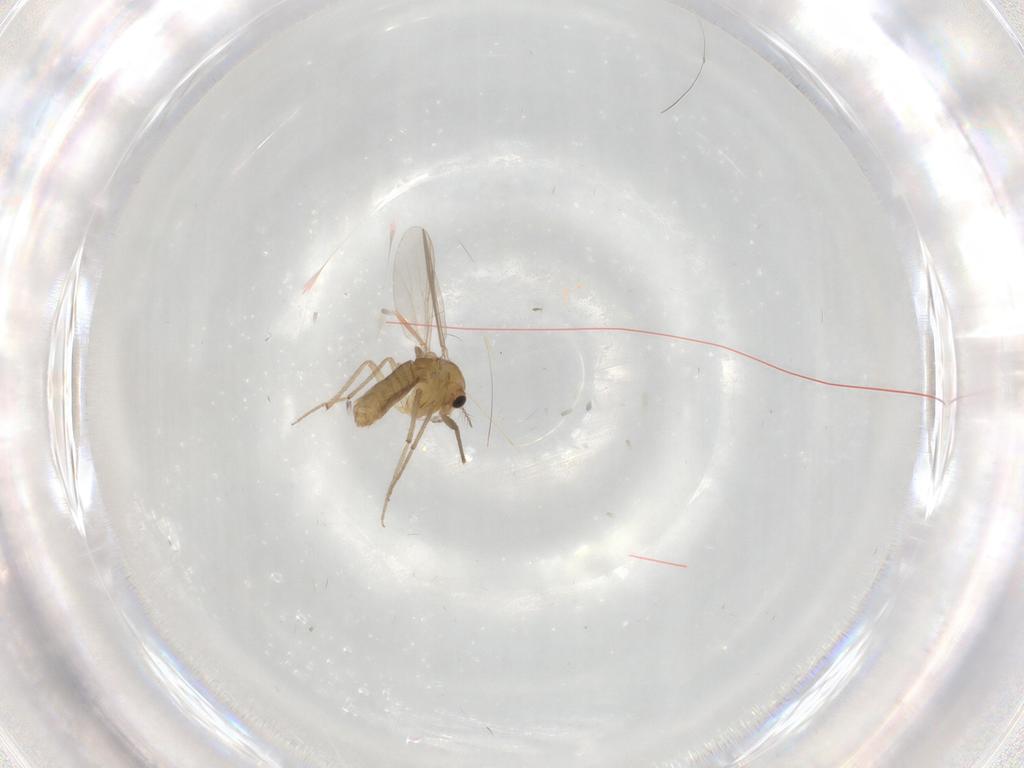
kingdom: Animalia
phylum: Arthropoda
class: Insecta
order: Diptera
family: Chironomidae
